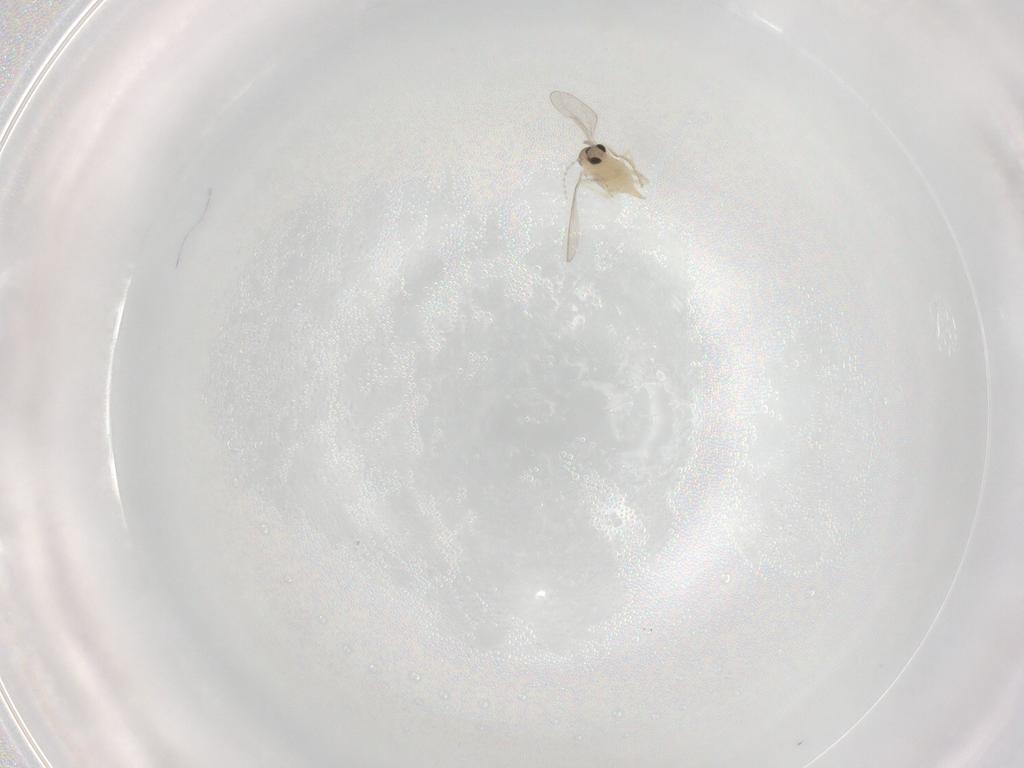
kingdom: Animalia
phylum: Arthropoda
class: Insecta
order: Diptera
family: Cecidomyiidae
